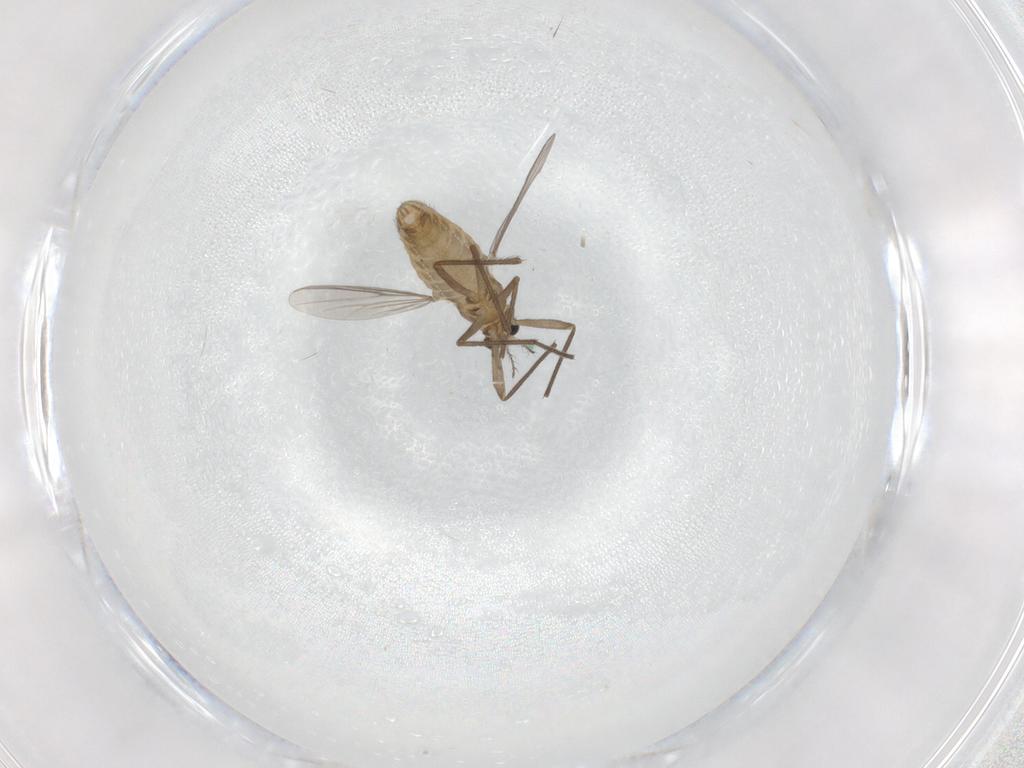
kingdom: Animalia
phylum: Arthropoda
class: Insecta
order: Diptera
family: Chironomidae
